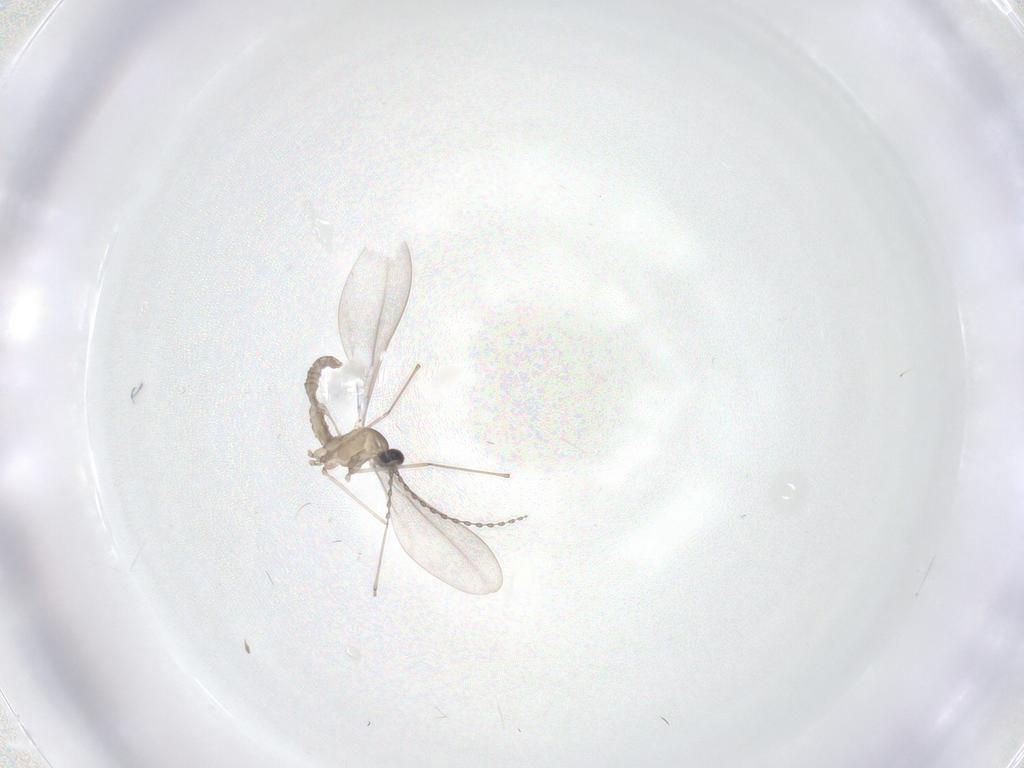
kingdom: Animalia
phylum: Arthropoda
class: Insecta
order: Diptera
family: Cecidomyiidae
